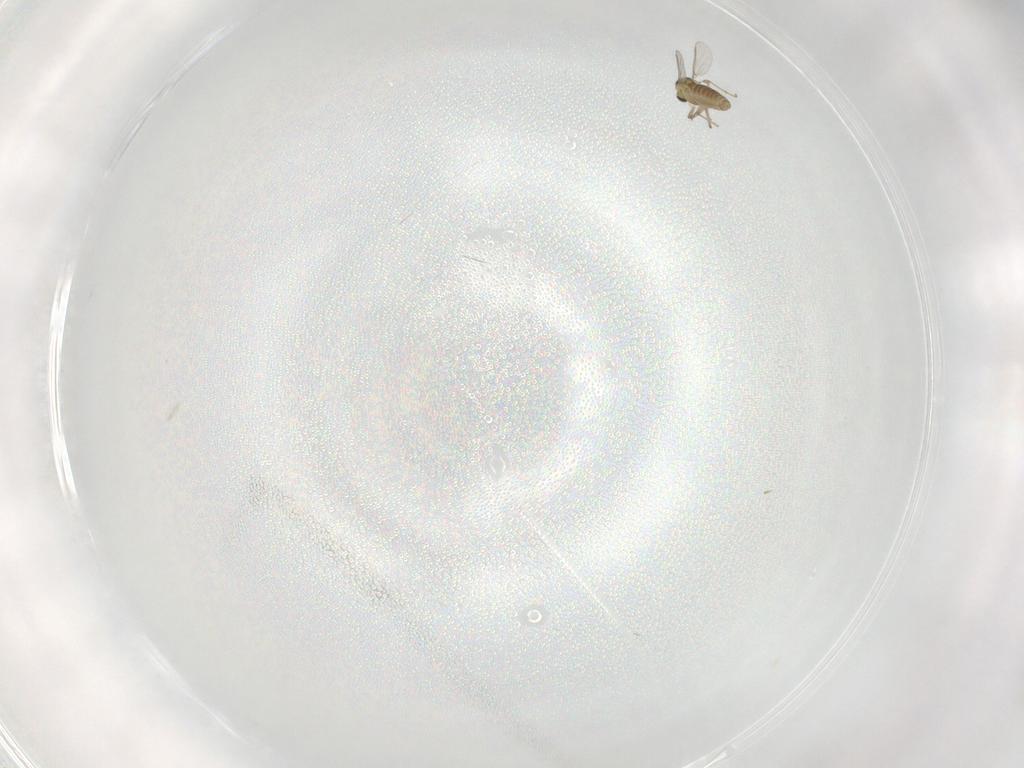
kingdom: Animalia
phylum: Arthropoda
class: Insecta
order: Diptera
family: Chironomidae
